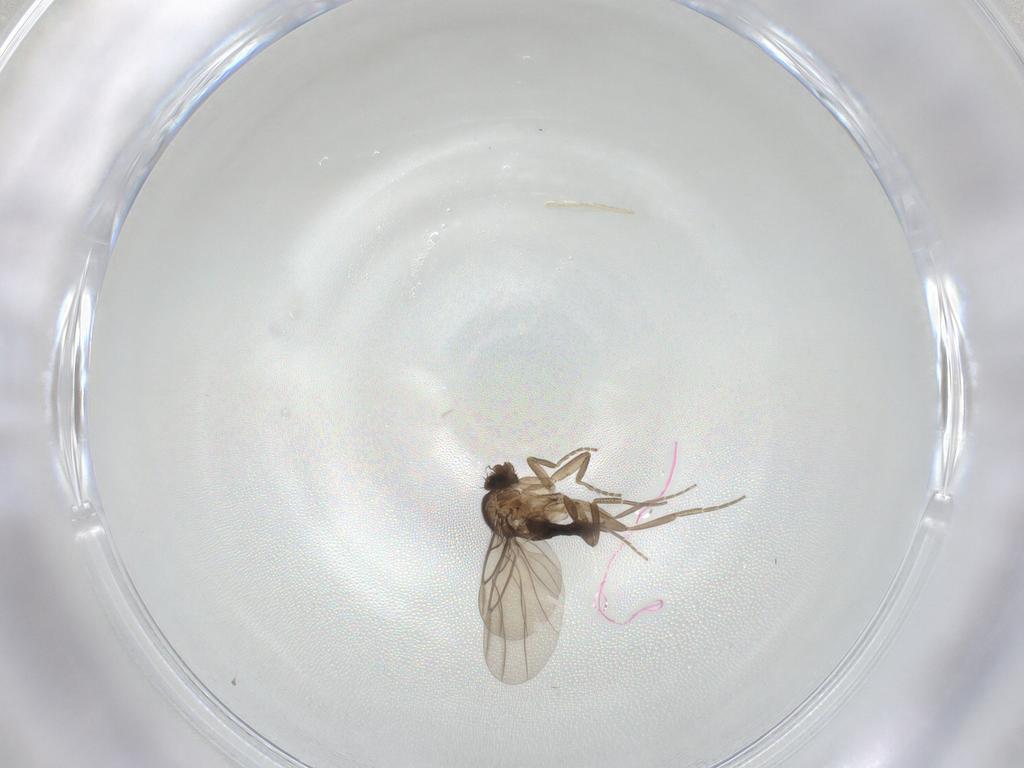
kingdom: Animalia
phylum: Arthropoda
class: Insecta
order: Diptera
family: Phoridae
